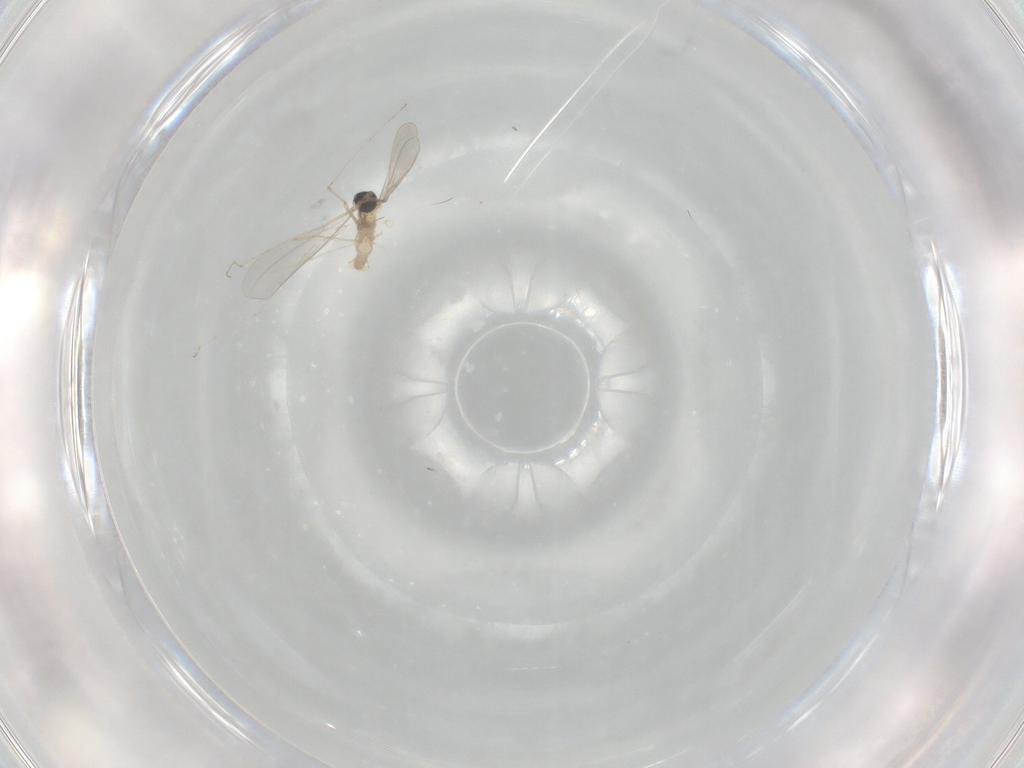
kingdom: Animalia
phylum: Arthropoda
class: Insecta
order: Diptera
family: Cecidomyiidae
